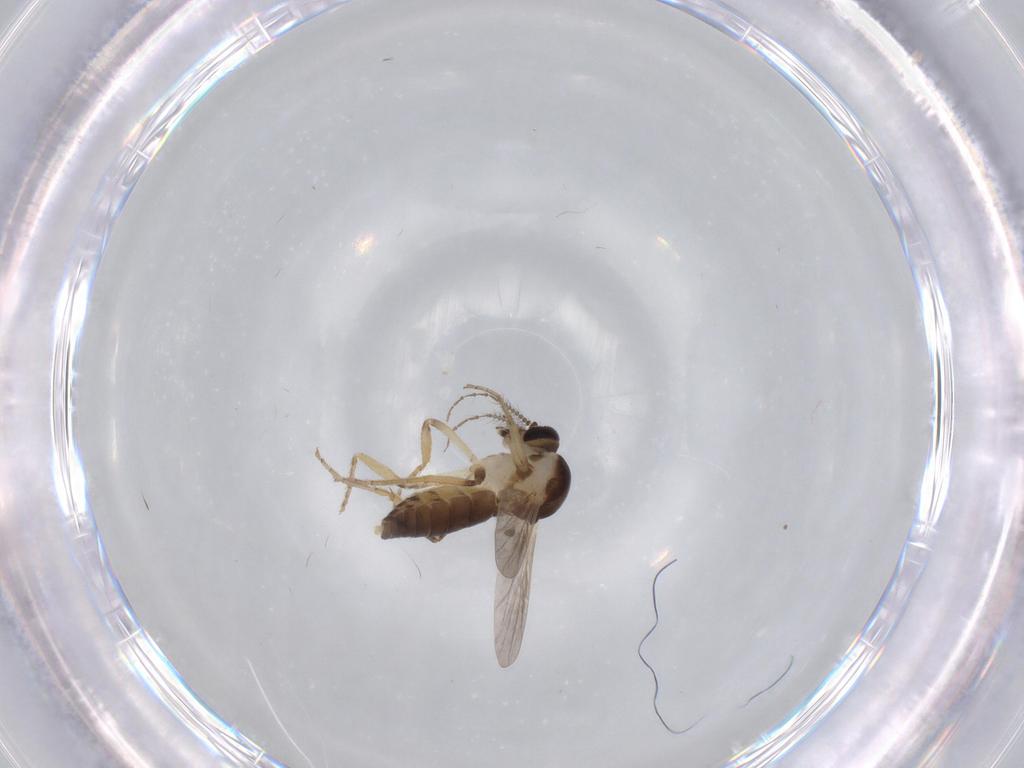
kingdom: Animalia
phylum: Arthropoda
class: Insecta
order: Diptera
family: Ceratopogonidae
